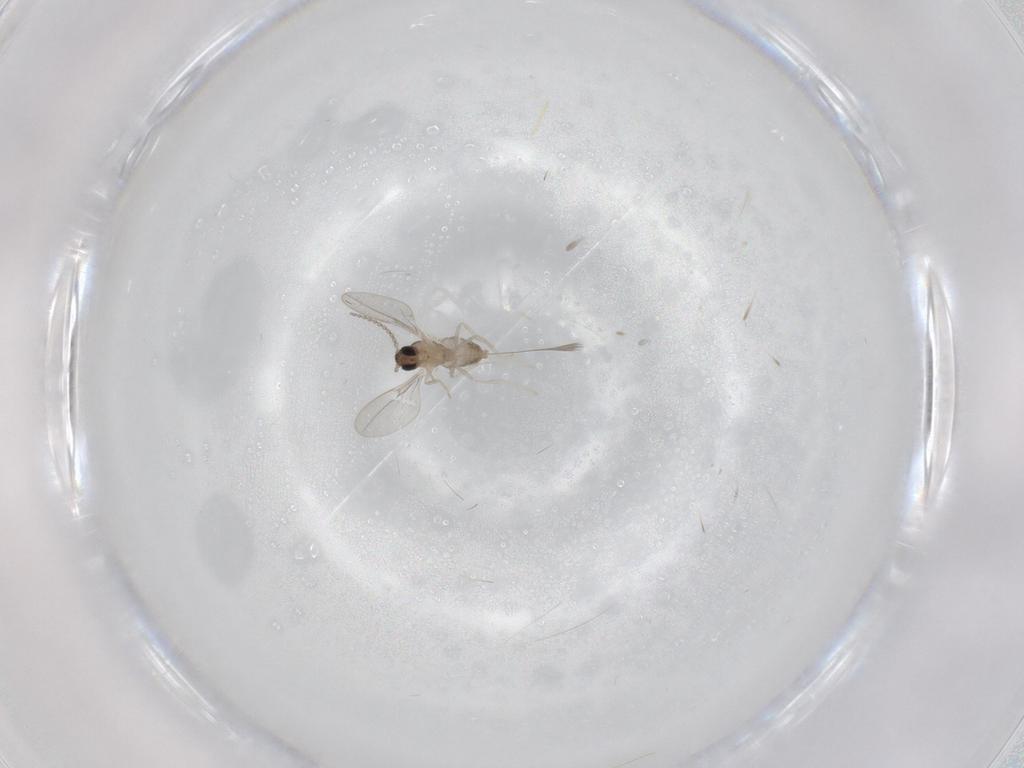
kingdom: Animalia
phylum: Arthropoda
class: Insecta
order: Diptera
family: Cecidomyiidae
